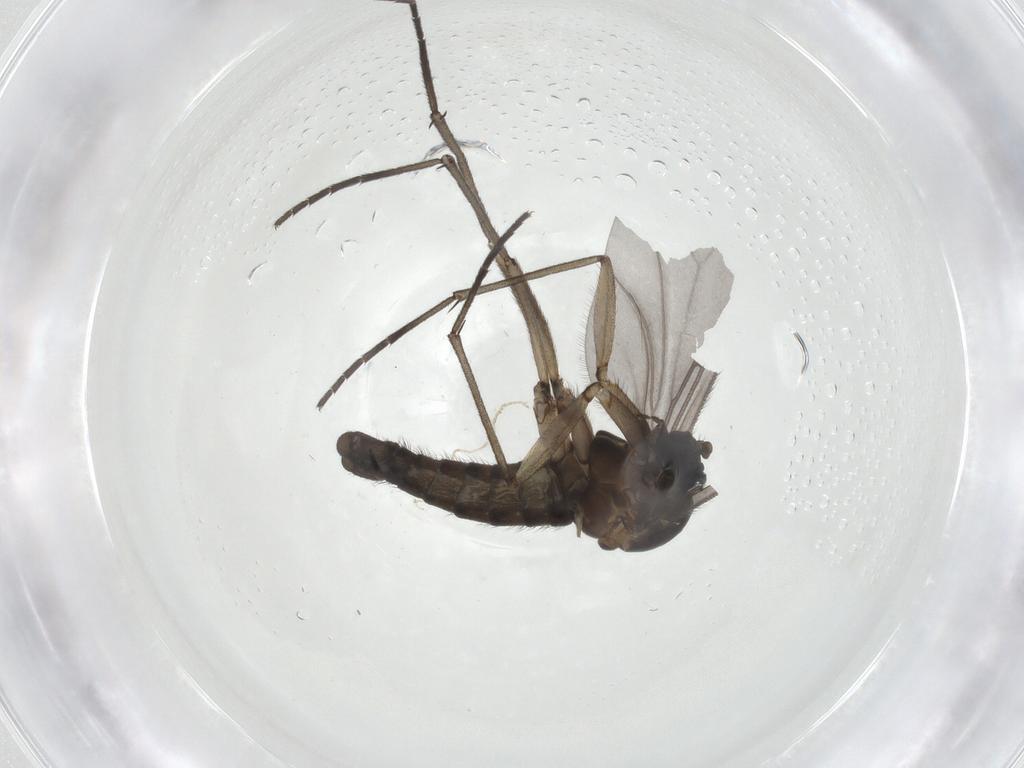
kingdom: Animalia
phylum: Arthropoda
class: Insecta
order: Diptera
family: Sciaridae
